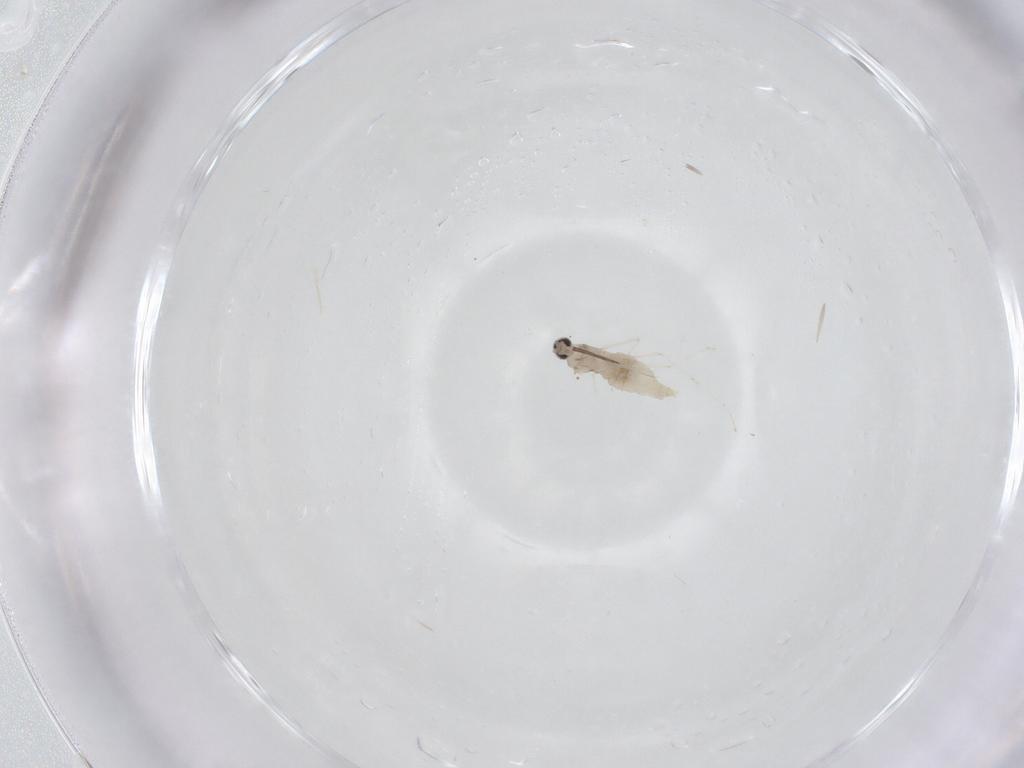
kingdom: Animalia
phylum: Arthropoda
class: Insecta
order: Diptera
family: Cecidomyiidae
